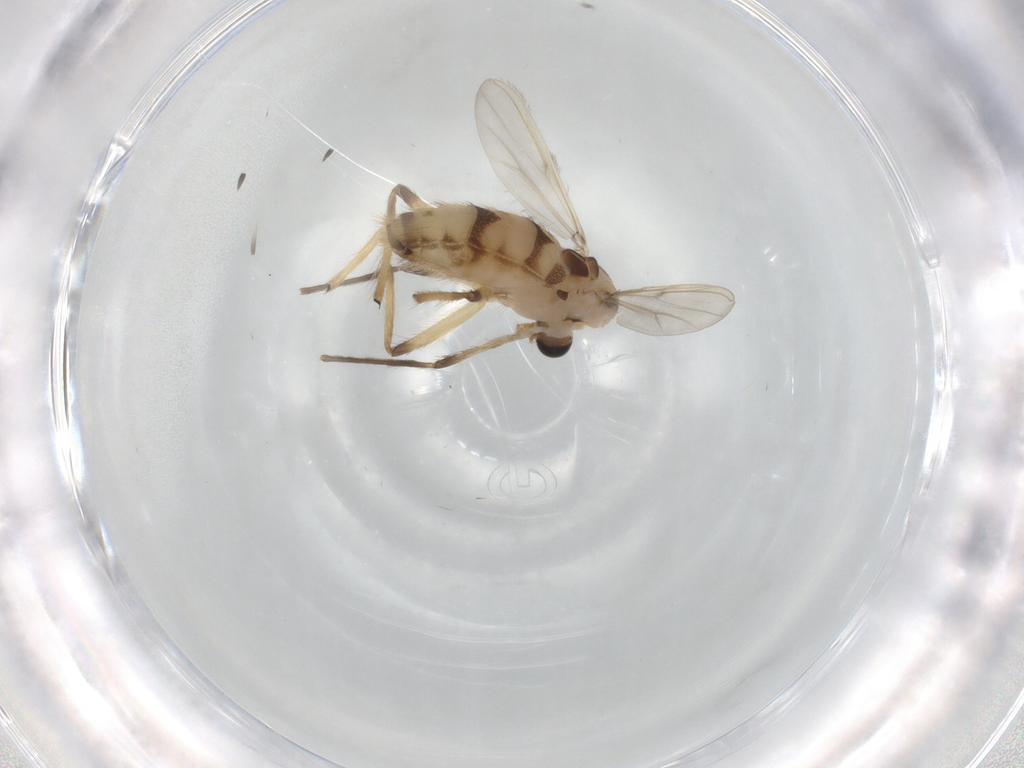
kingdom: Animalia
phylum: Arthropoda
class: Insecta
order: Diptera
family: Chironomidae
